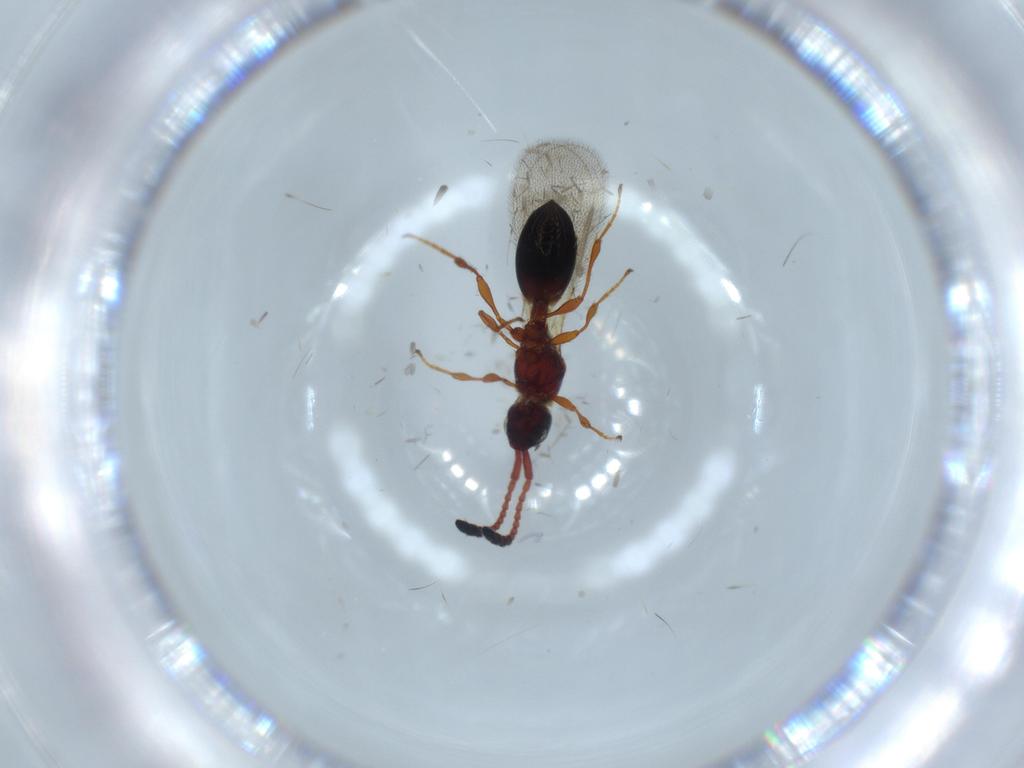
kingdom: Animalia
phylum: Arthropoda
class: Insecta
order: Hymenoptera
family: Diapriidae
